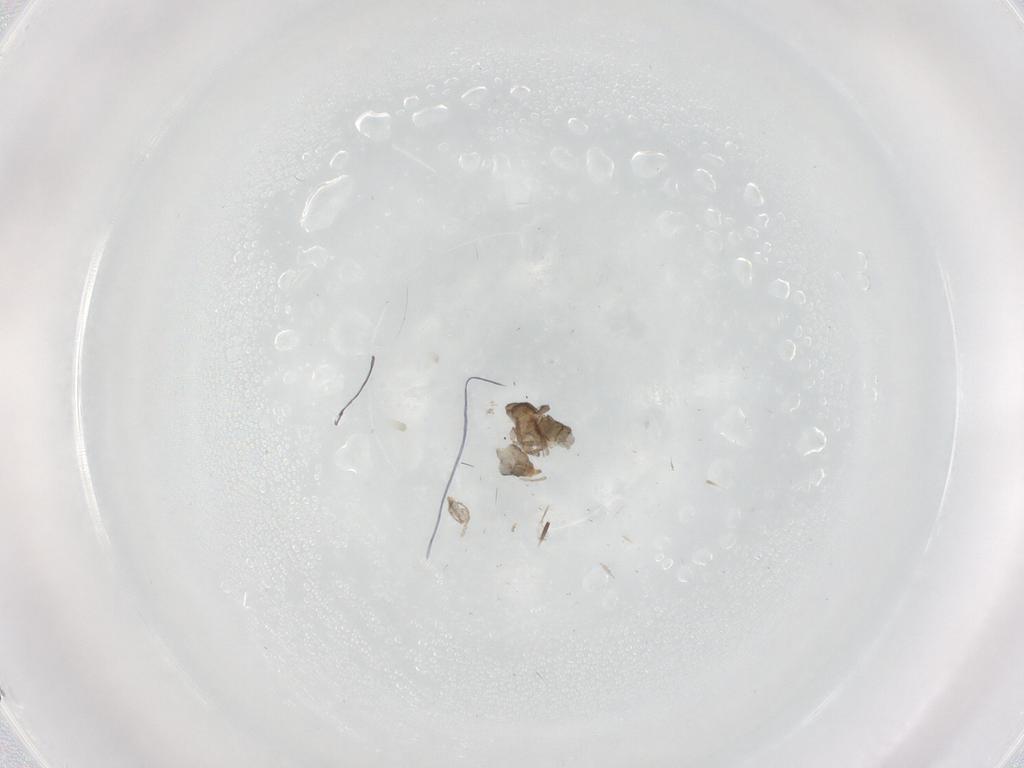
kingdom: Animalia
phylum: Arthropoda
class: Insecta
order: Diptera
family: Cecidomyiidae
